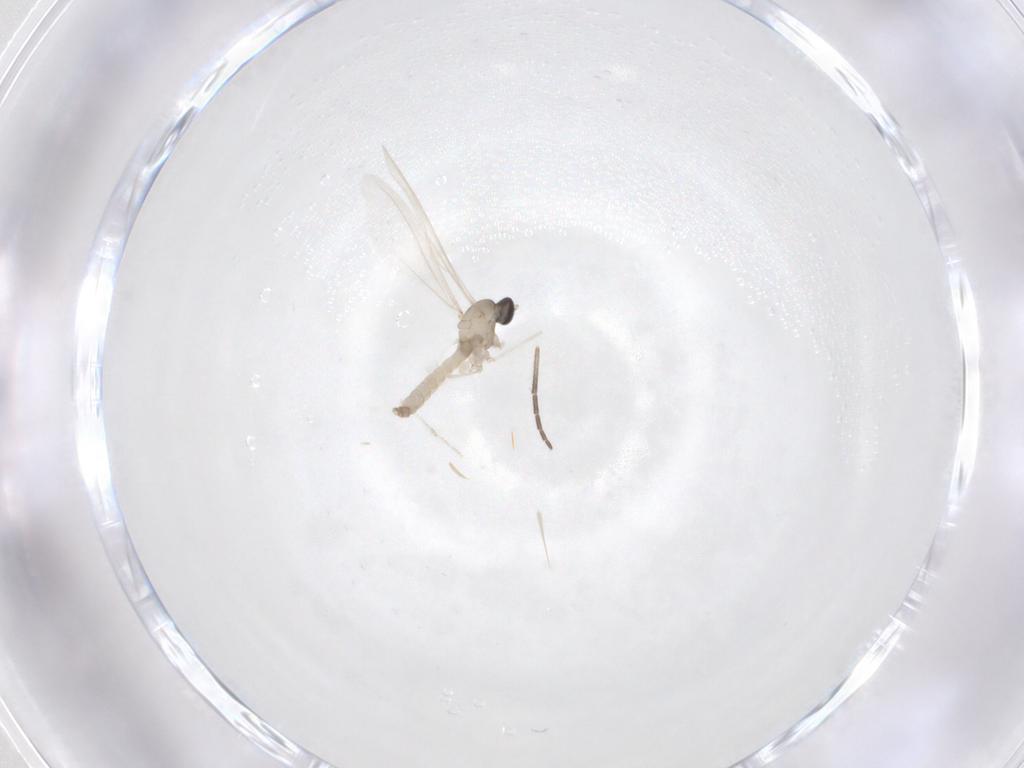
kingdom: Animalia
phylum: Arthropoda
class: Insecta
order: Diptera
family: Cecidomyiidae
